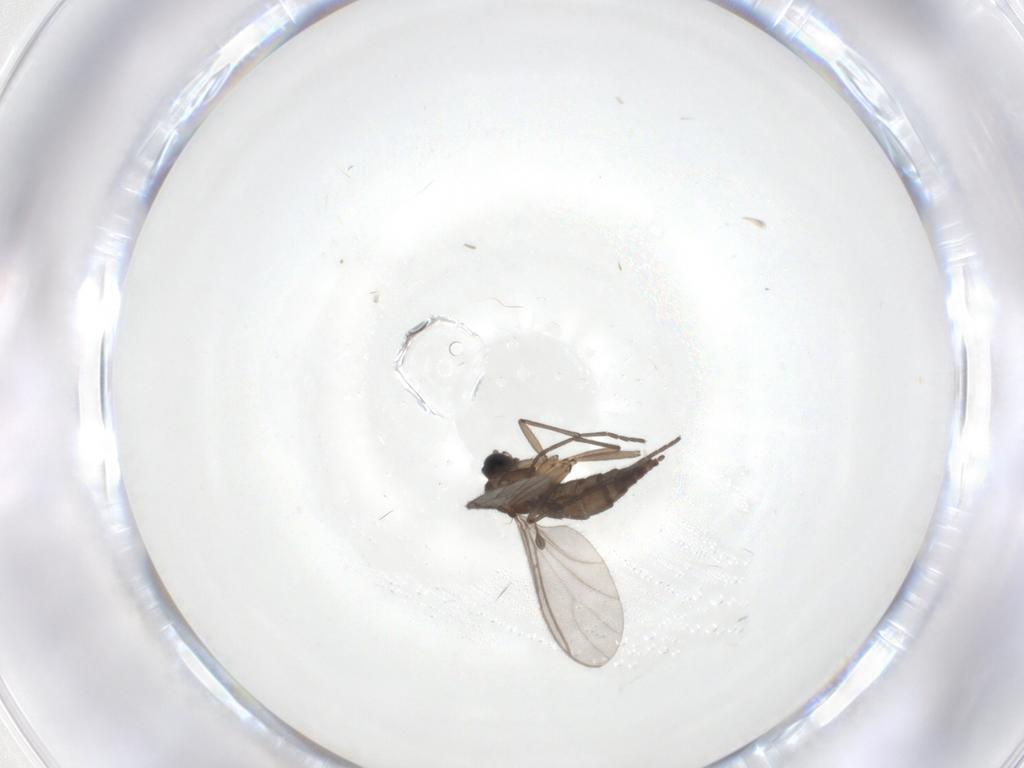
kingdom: Animalia
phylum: Arthropoda
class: Insecta
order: Diptera
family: Sciaridae
